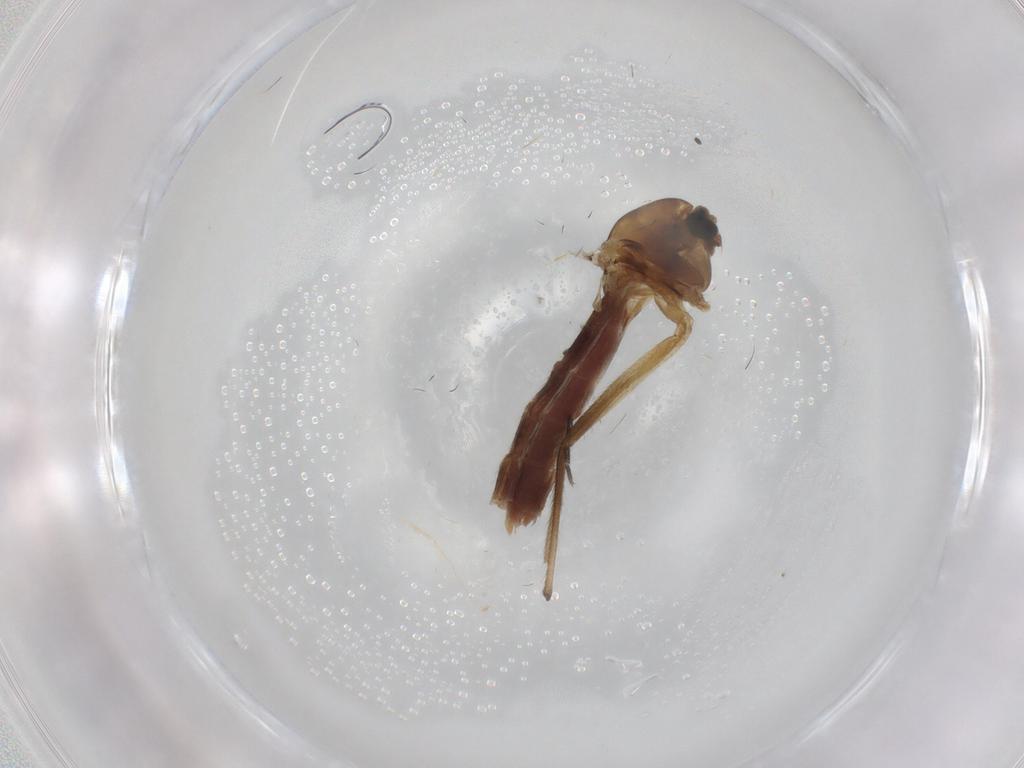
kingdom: Animalia
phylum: Arthropoda
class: Insecta
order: Diptera
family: Chironomidae
